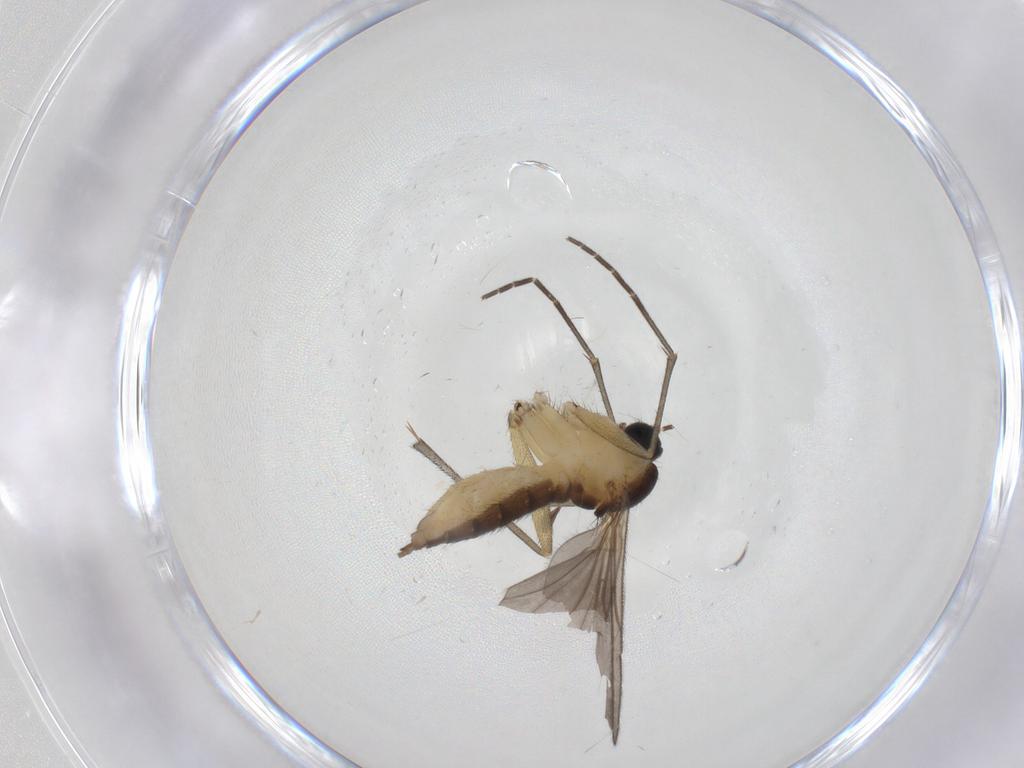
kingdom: Animalia
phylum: Arthropoda
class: Insecta
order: Diptera
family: Sciaridae
